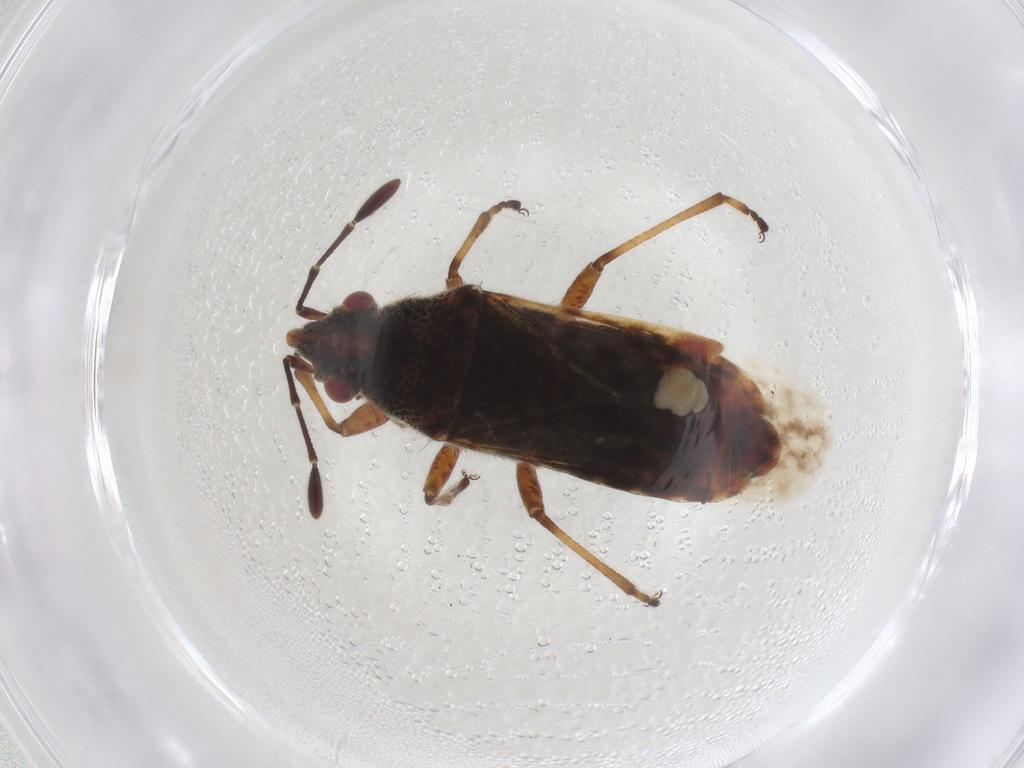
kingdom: Animalia
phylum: Arthropoda
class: Insecta
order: Hemiptera
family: Lygaeidae
